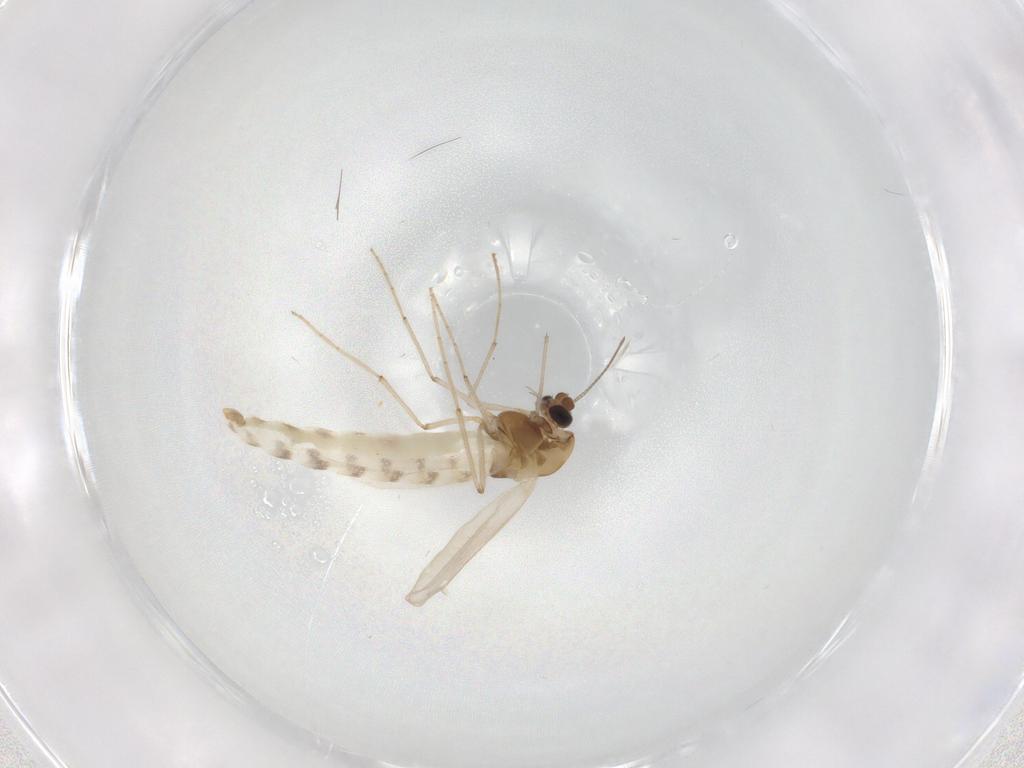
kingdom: Animalia
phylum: Arthropoda
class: Insecta
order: Diptera
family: Chironomidae
